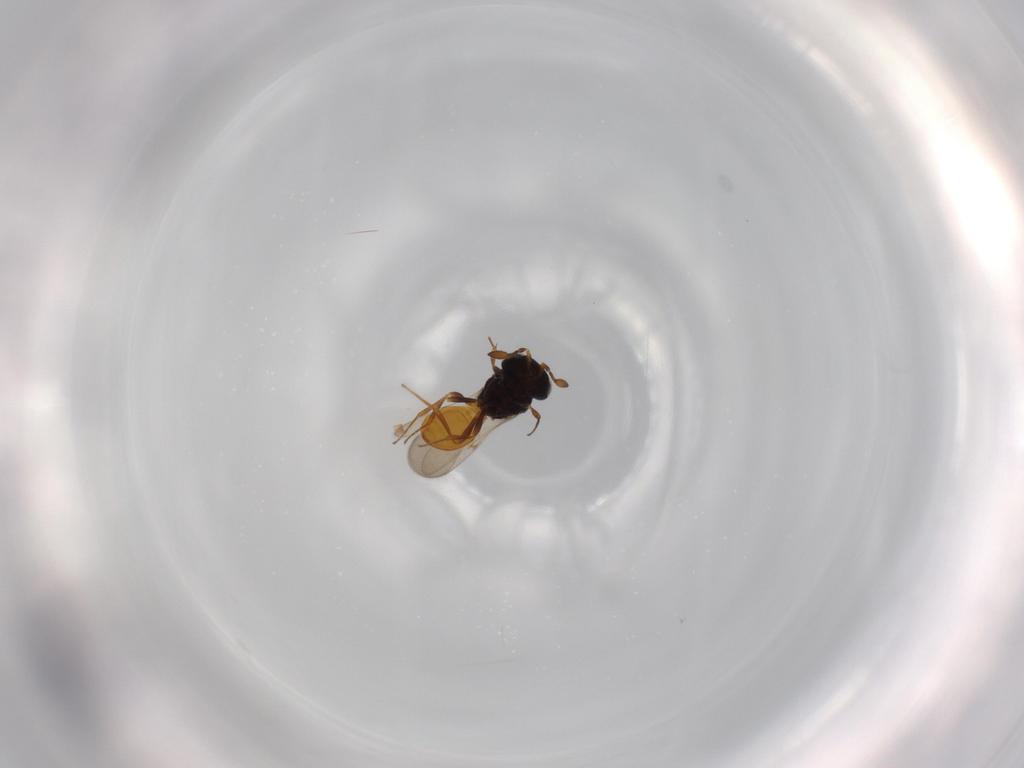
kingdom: Animalia
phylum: Arthropoda
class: Insecta
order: Hymenoptera
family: Scelionidae
